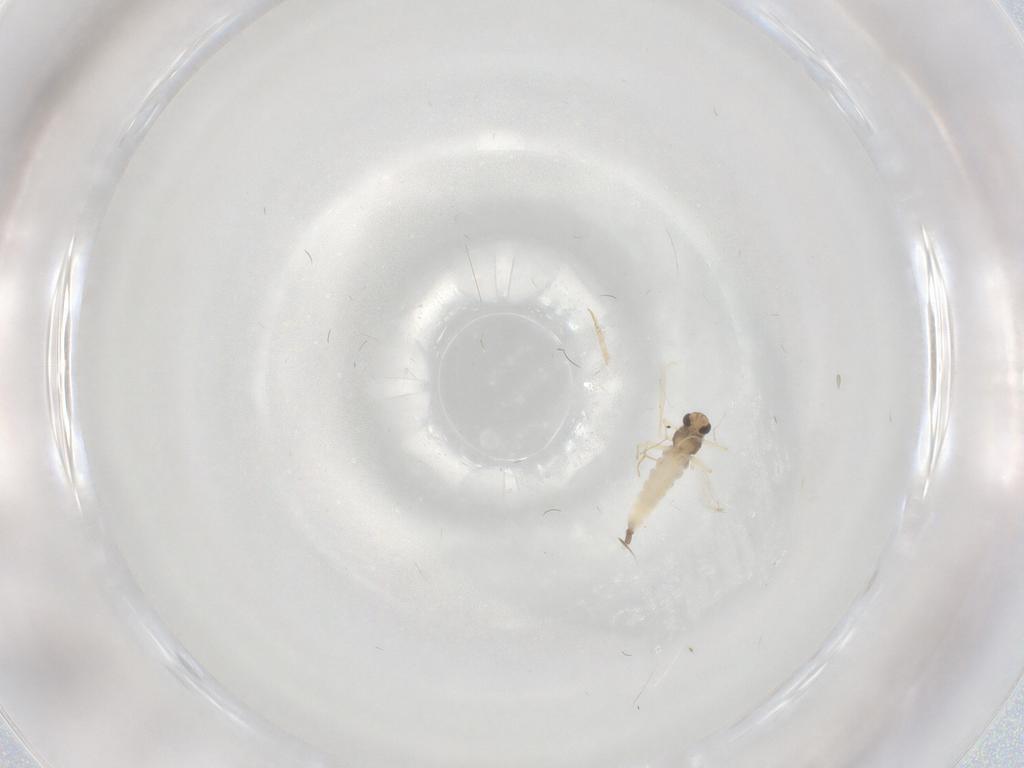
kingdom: Animalia
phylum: Arthropoda
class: Insecta
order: Diptera
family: Chironomidae
